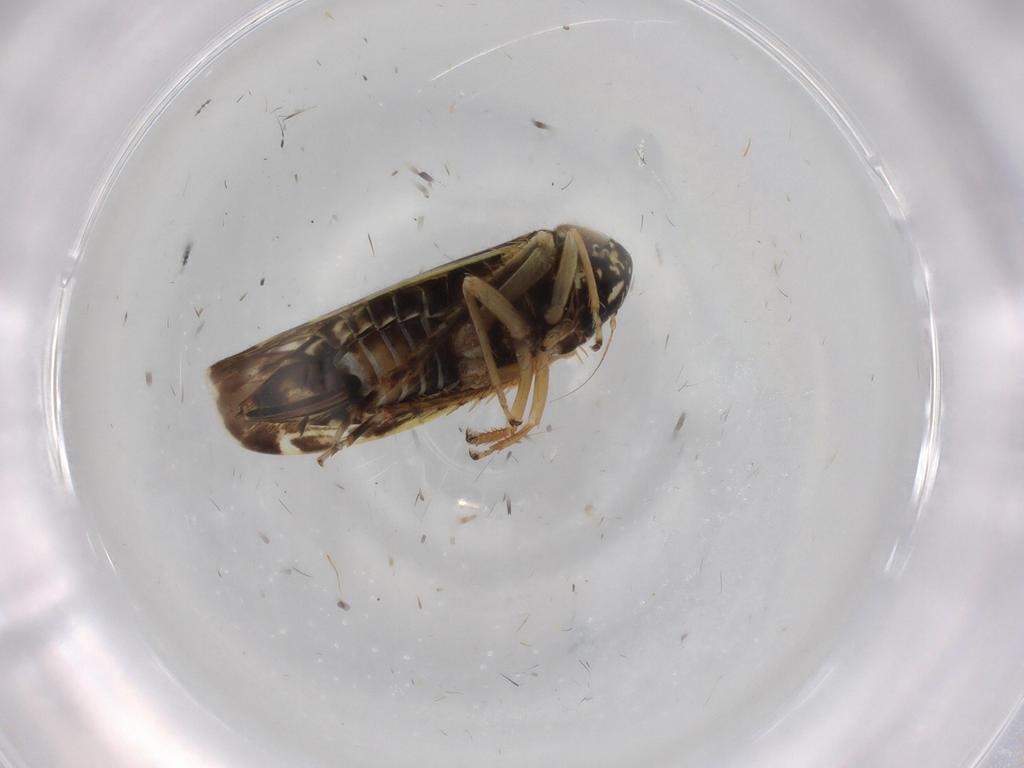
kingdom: Animalia
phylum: Arthropoda
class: Insecta
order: Hemiptera
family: Cicadellidae
